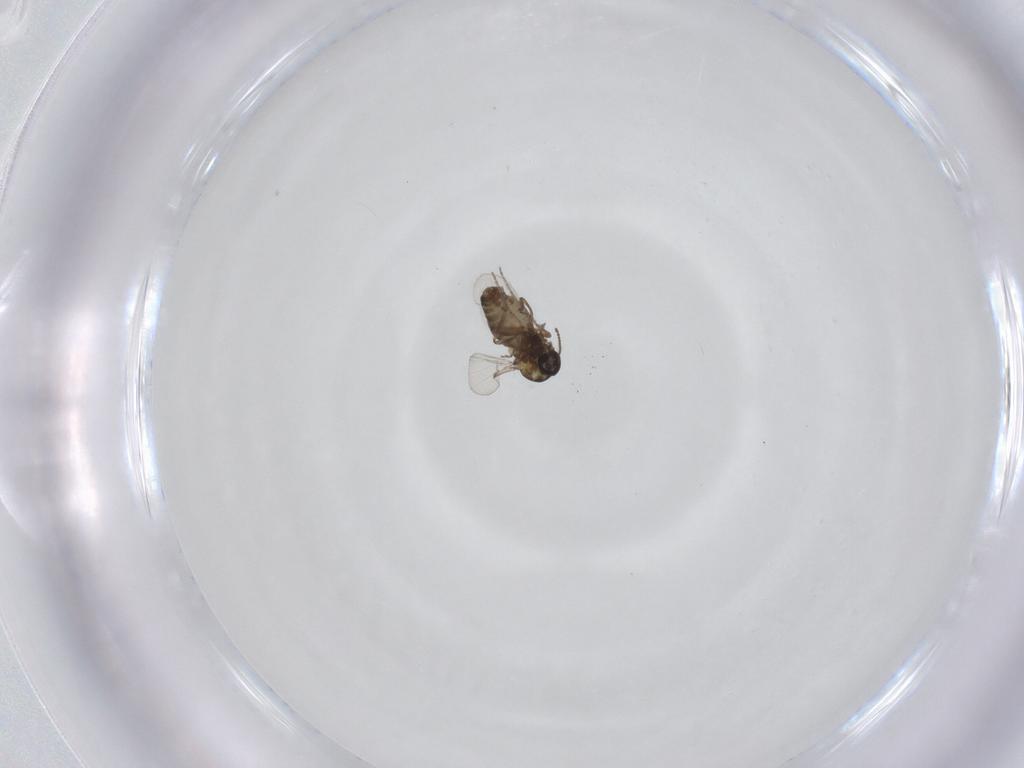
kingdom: Animalia
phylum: Arthropoda
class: Insecta
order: Diptera
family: Ceratopogonidae
